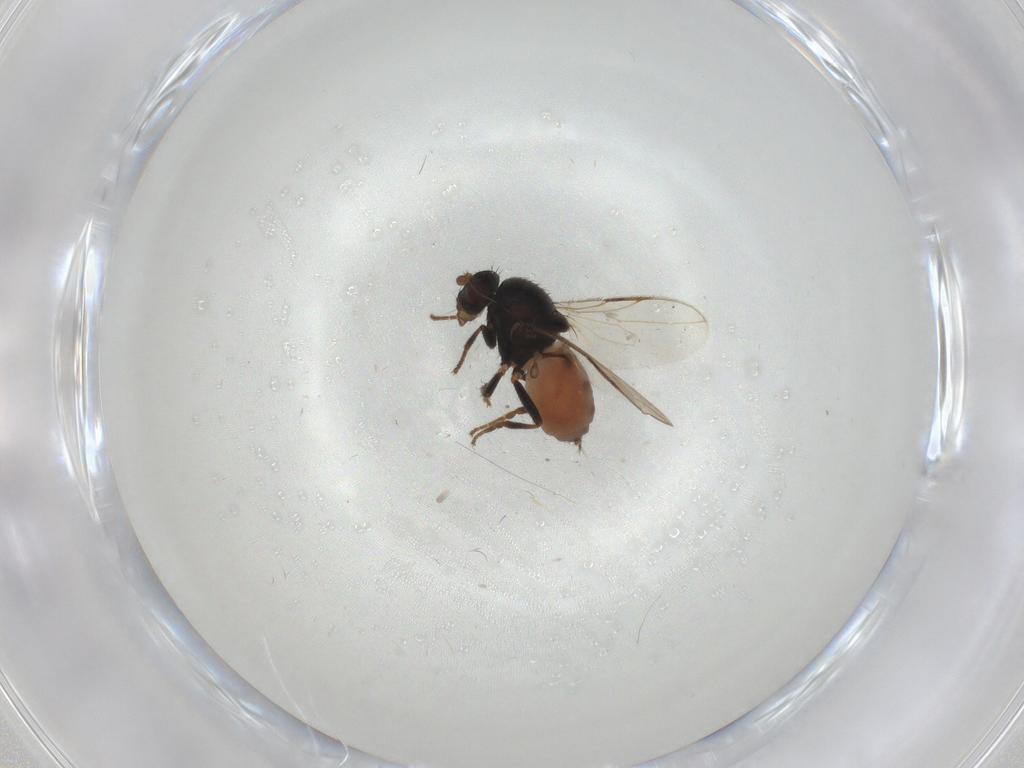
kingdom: Animalia
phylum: Arthropoda
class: Insecta
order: Diptera
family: Sphaeroceridae
